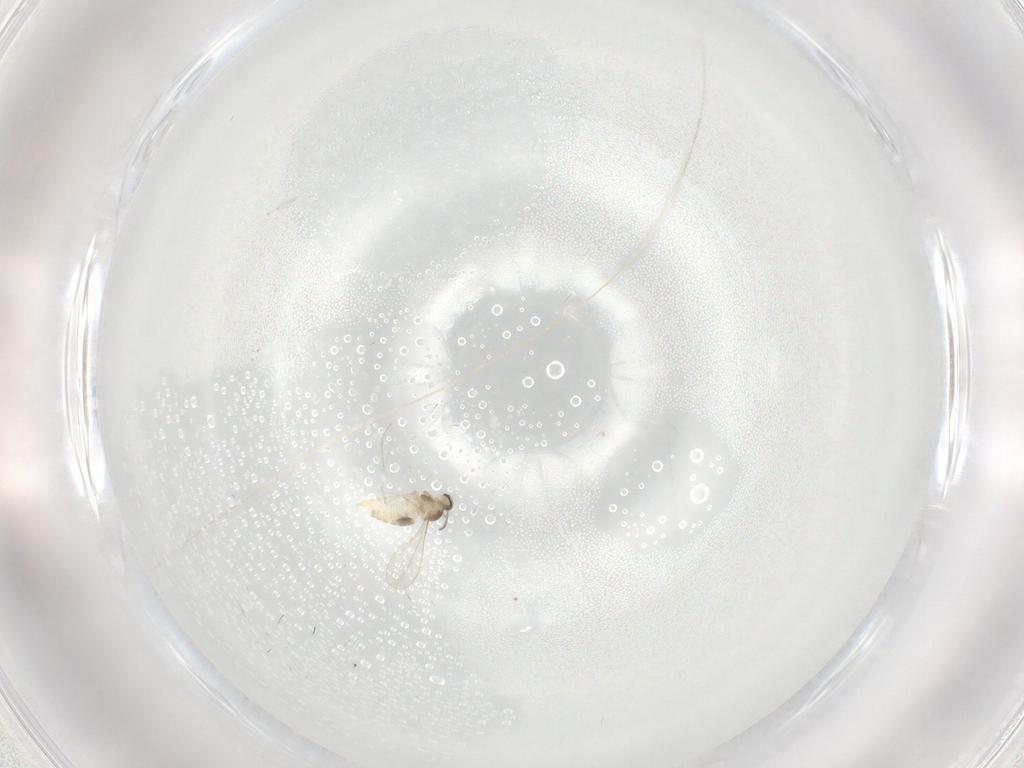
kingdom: Animalia
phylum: Arthropoda
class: Insecta
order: Diptera
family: Cecidomyiidae
